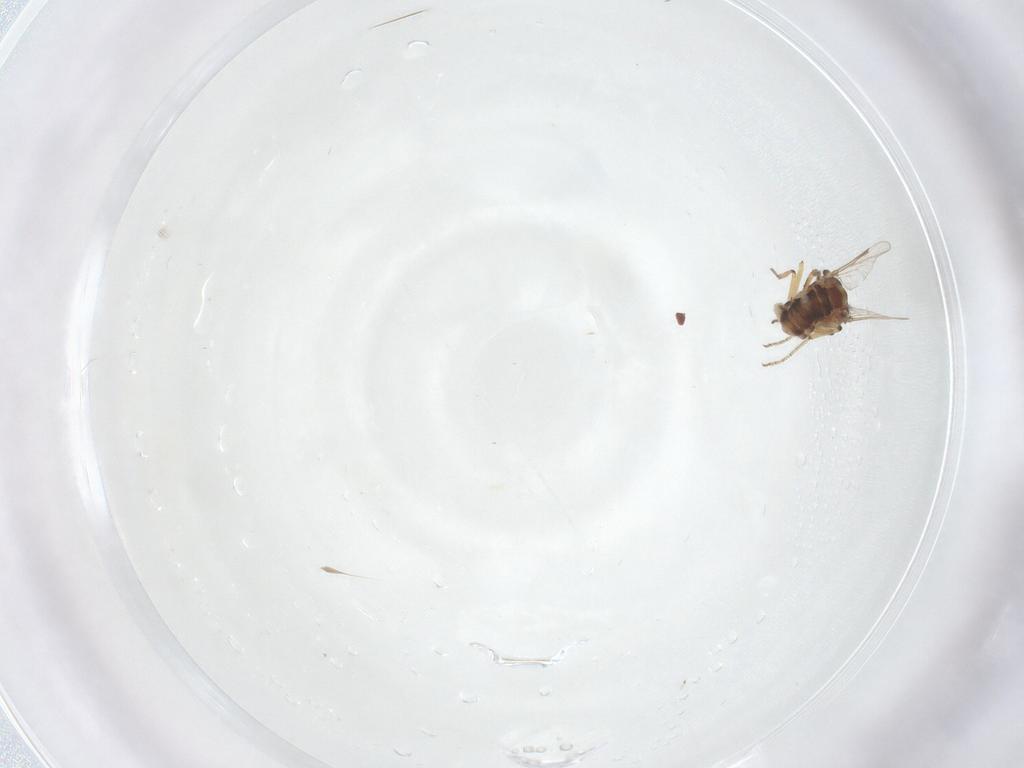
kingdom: Animalia
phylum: Arthropoda
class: Insecta
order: Diptera
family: Ceratopogonidae
